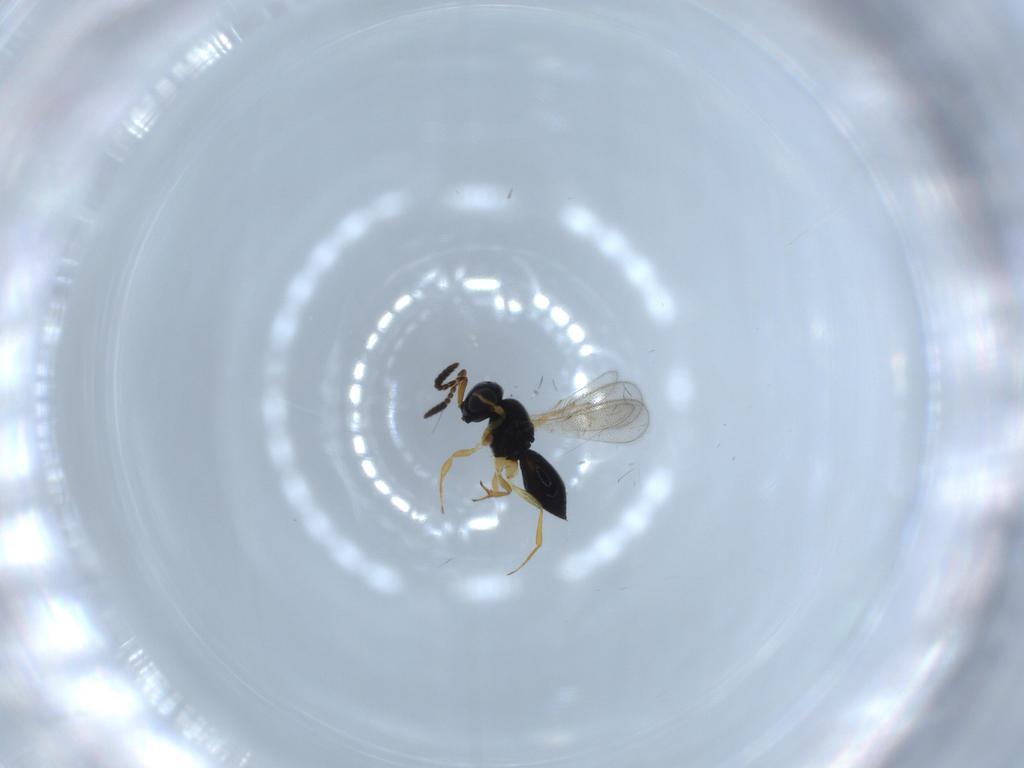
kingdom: Animalia
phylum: Arthropoda
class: Insecta
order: Hymenoptera
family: Scelionidae
